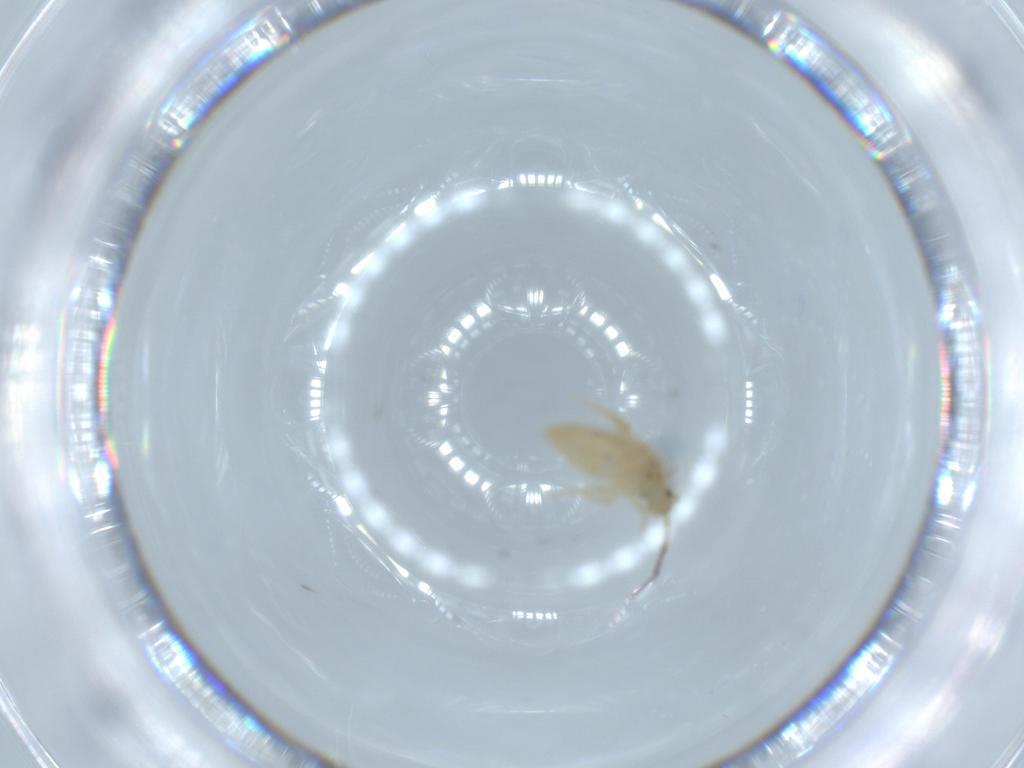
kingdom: Animalia
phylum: Arthropoda
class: Collembola
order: Entomobryomorpha
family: Entomobryidae
